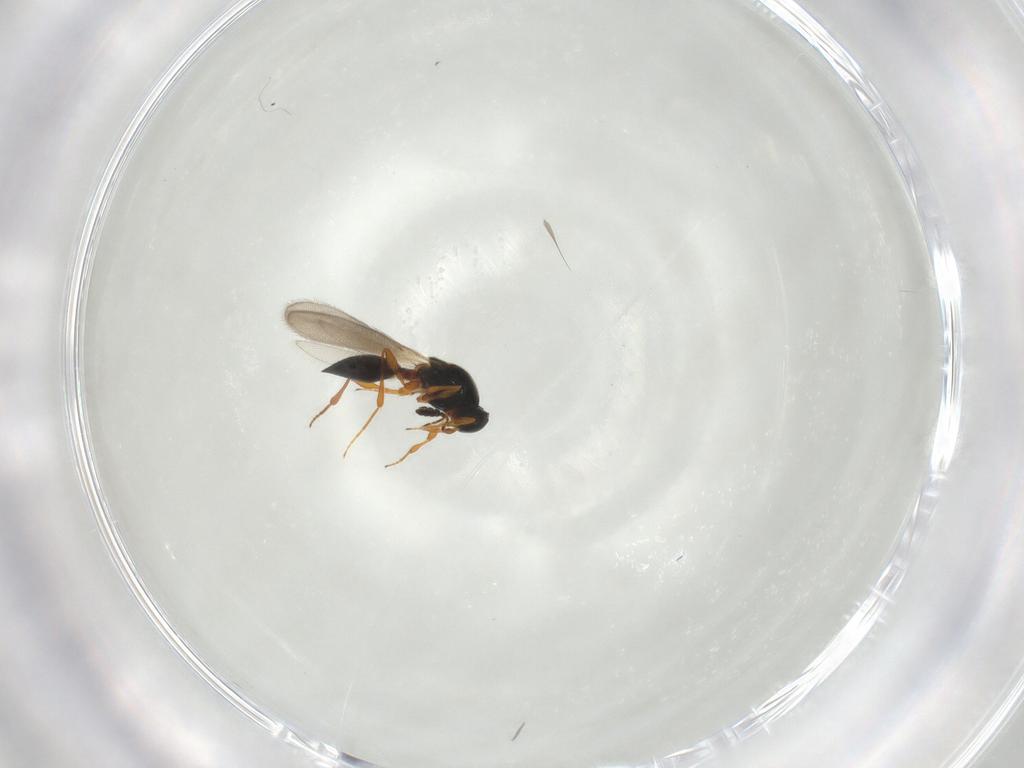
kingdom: Animalia
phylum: Arthropoda
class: Insecta
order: Hymenoptera
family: Platygastridae
